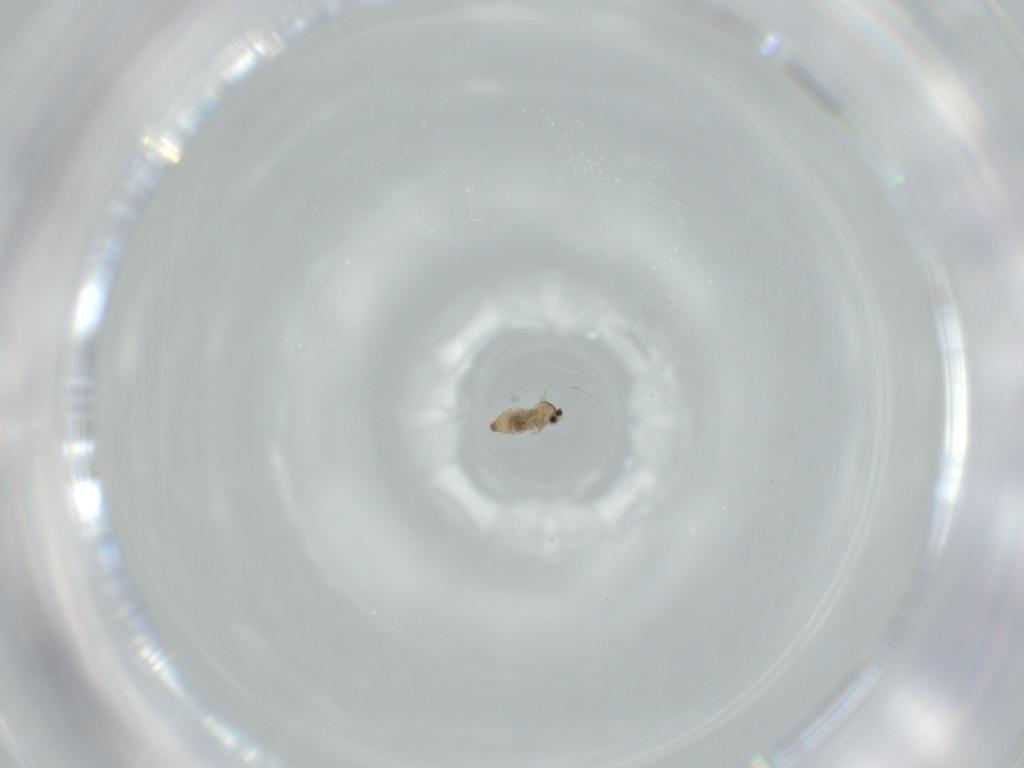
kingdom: Animalia
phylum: Arthropoda
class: Insecta
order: Diptera
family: Cecidomyiidae
